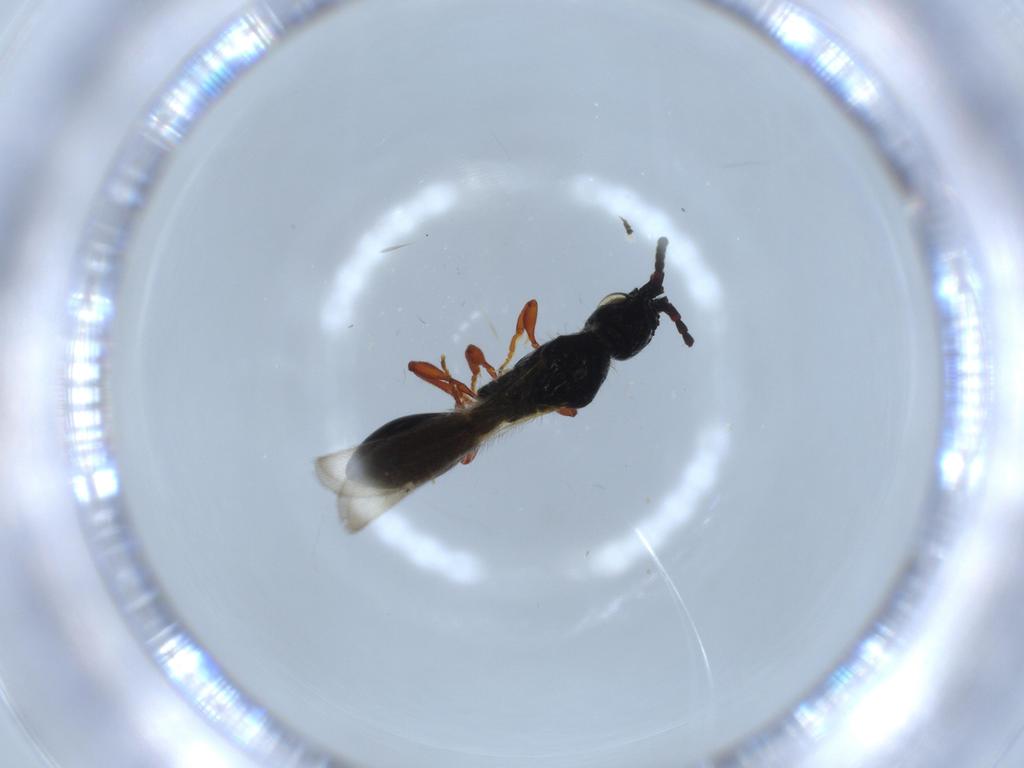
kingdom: Animalia
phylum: Arthropoda
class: Insecta
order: Hymenoptera
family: Diapriidae
